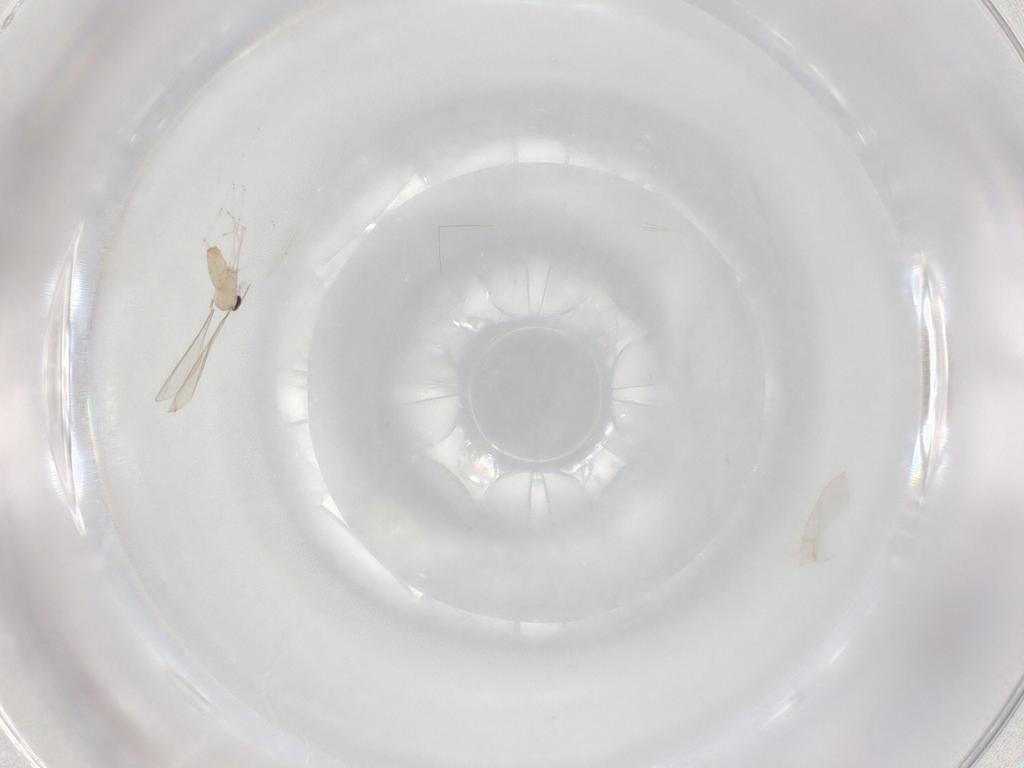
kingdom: Animalia
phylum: Arthropoda
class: Insecta
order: Diptera
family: Cecidomyiidae
